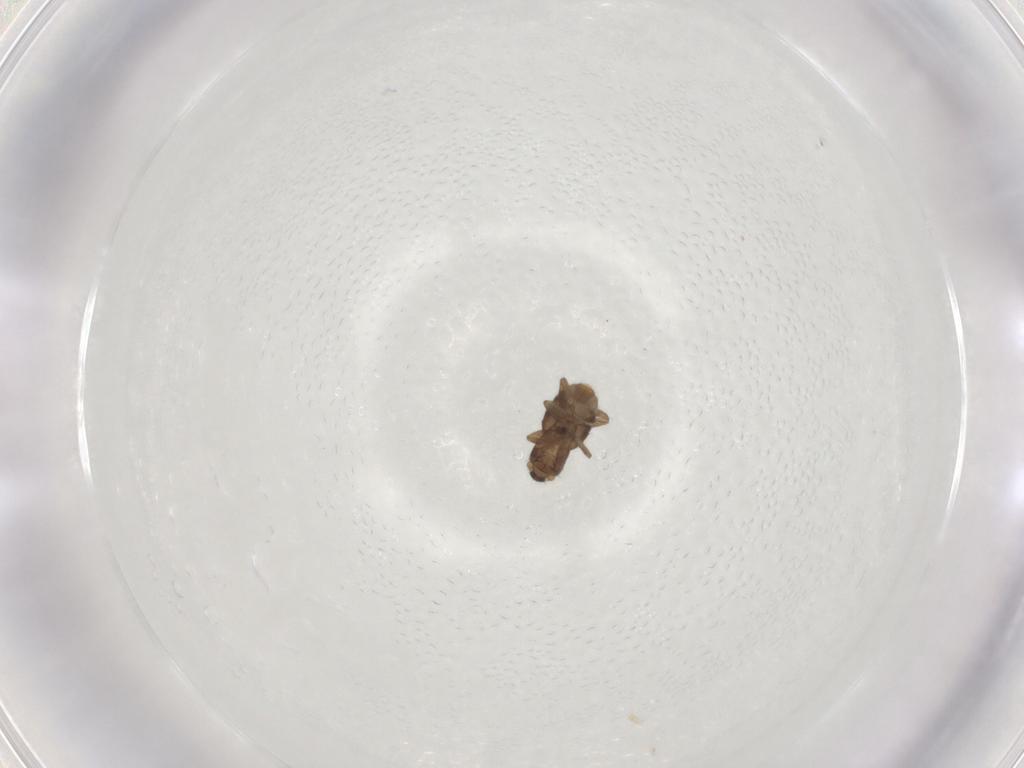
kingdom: Animalia
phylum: Arthropoda
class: Insecta
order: Diptera
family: Phoridae
